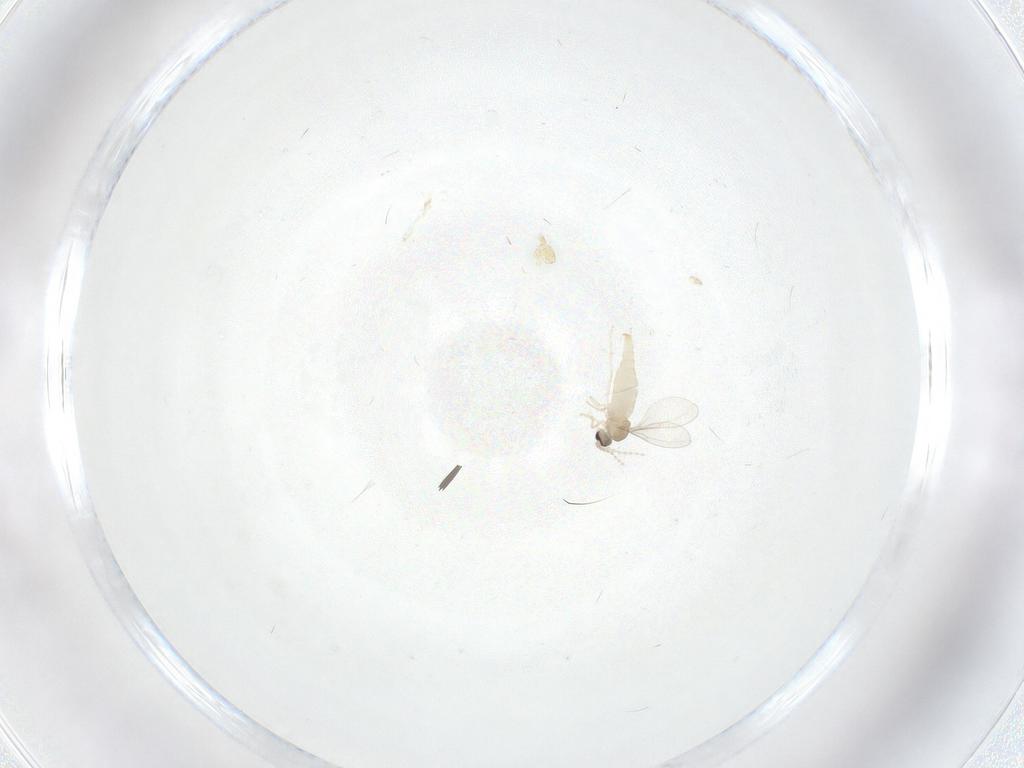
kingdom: Animalia
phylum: Arthropoda
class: Insecta
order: Diptera
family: Cecidomyiidae
